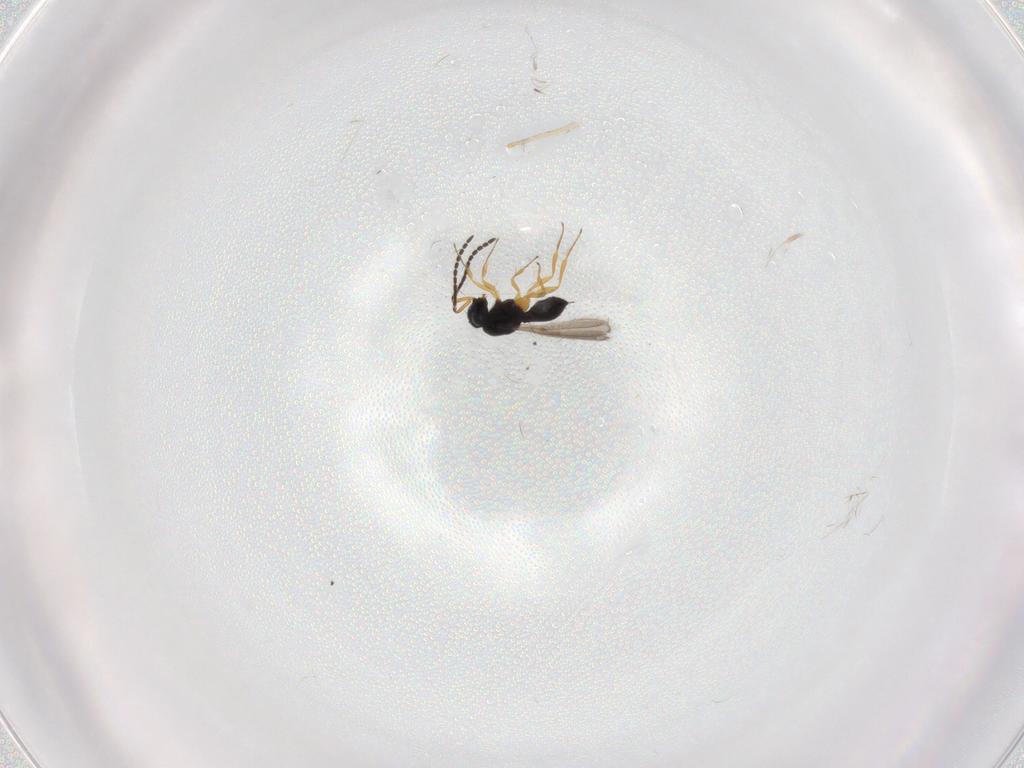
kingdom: Animalia
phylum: Arthropoda
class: Insecta
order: Hymenoptera
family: Scelionidae
